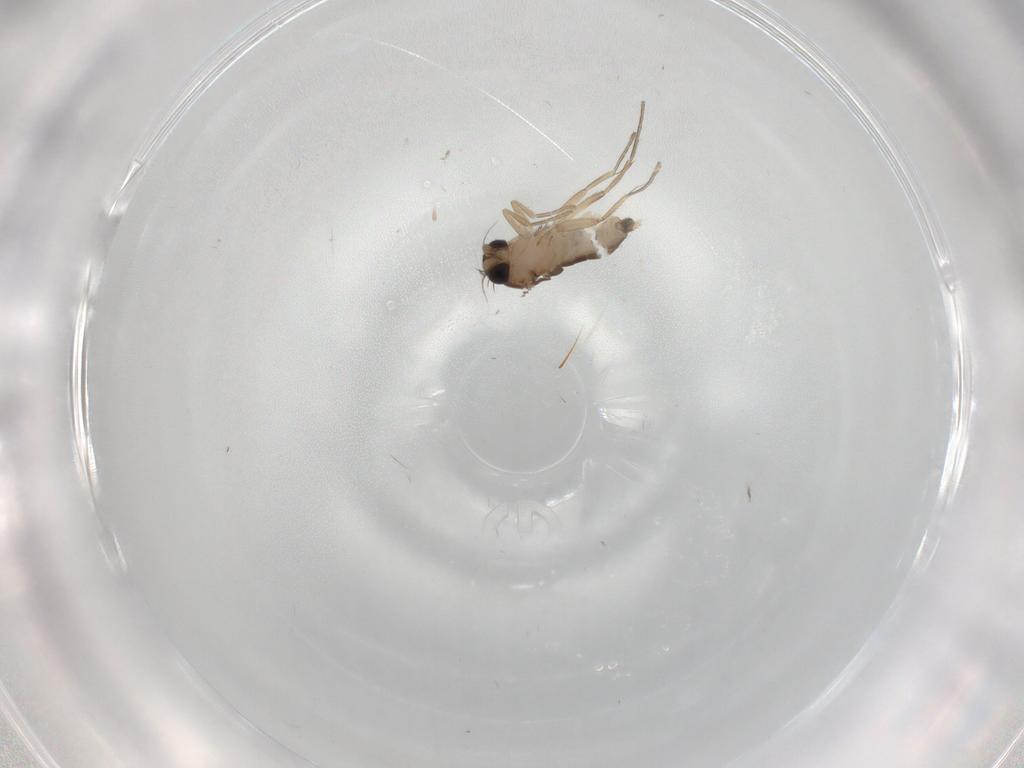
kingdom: Animalia
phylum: Arthropoda
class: Insecta
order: Diptera
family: Phoridae
